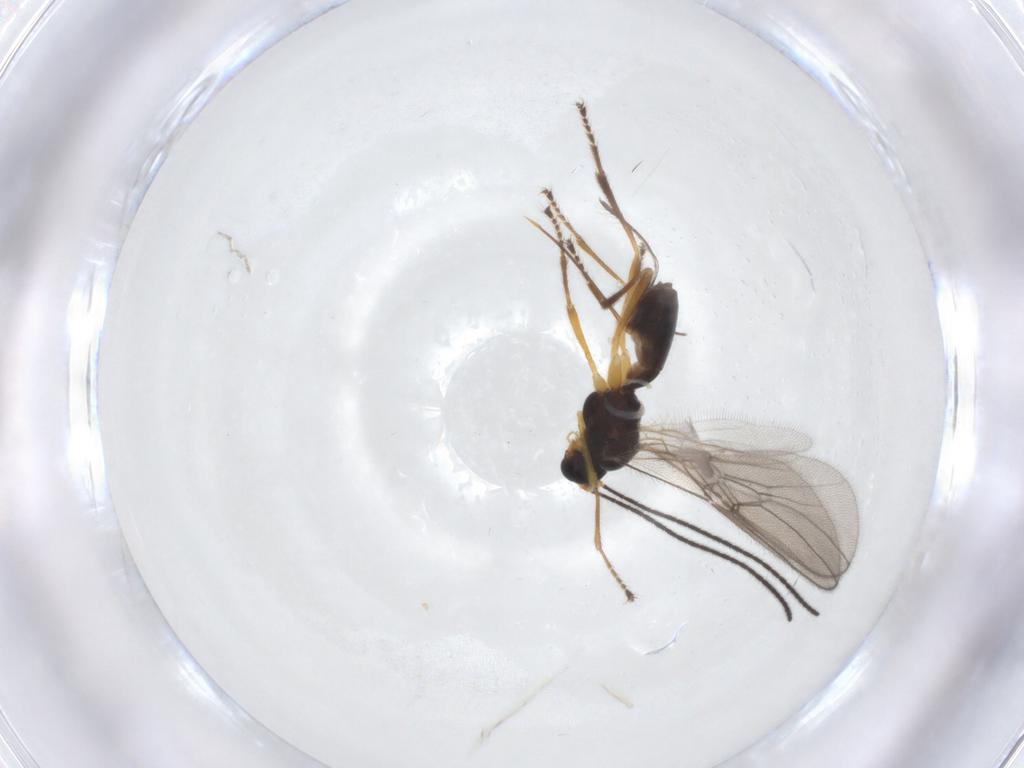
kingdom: Animalia
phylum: Arthropoda
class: Insecta
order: Hymenoptera
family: Braconidae
